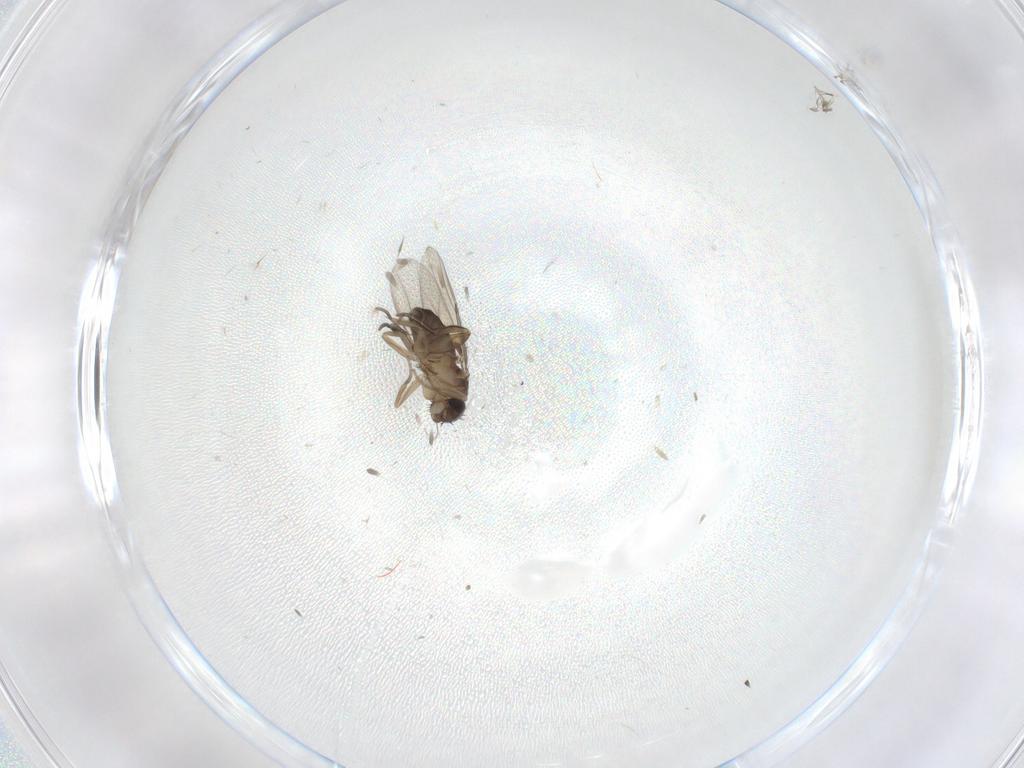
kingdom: Animalia
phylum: Arthropoda
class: Insecta
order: Diptera
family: Phoridae
